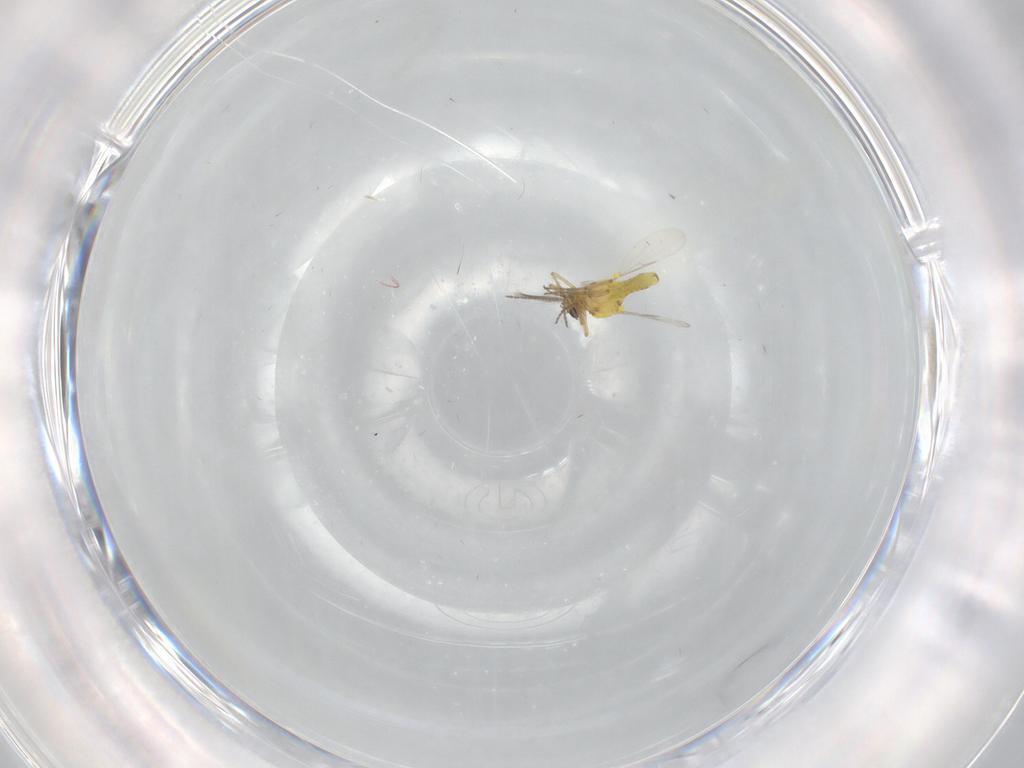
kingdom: Animalia
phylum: Arthropoda
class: Insecta
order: Diptera
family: Ceratopogonidae
